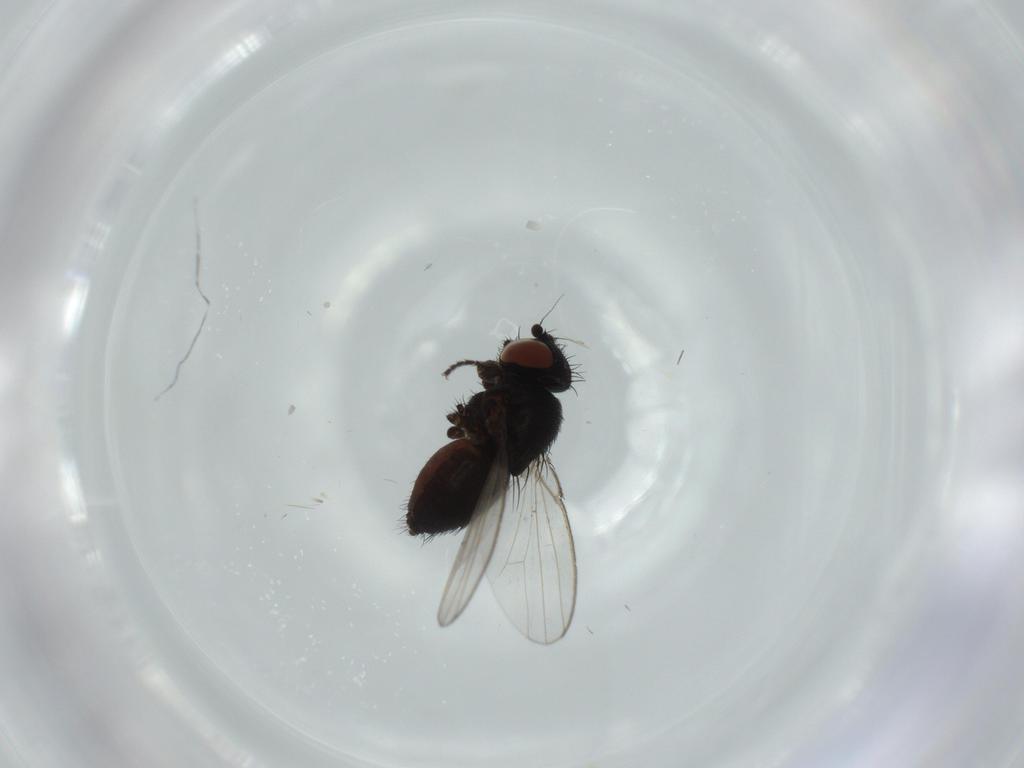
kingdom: Animalia
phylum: Arthropoda
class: Insecta
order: Diptera
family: Milichiidae
